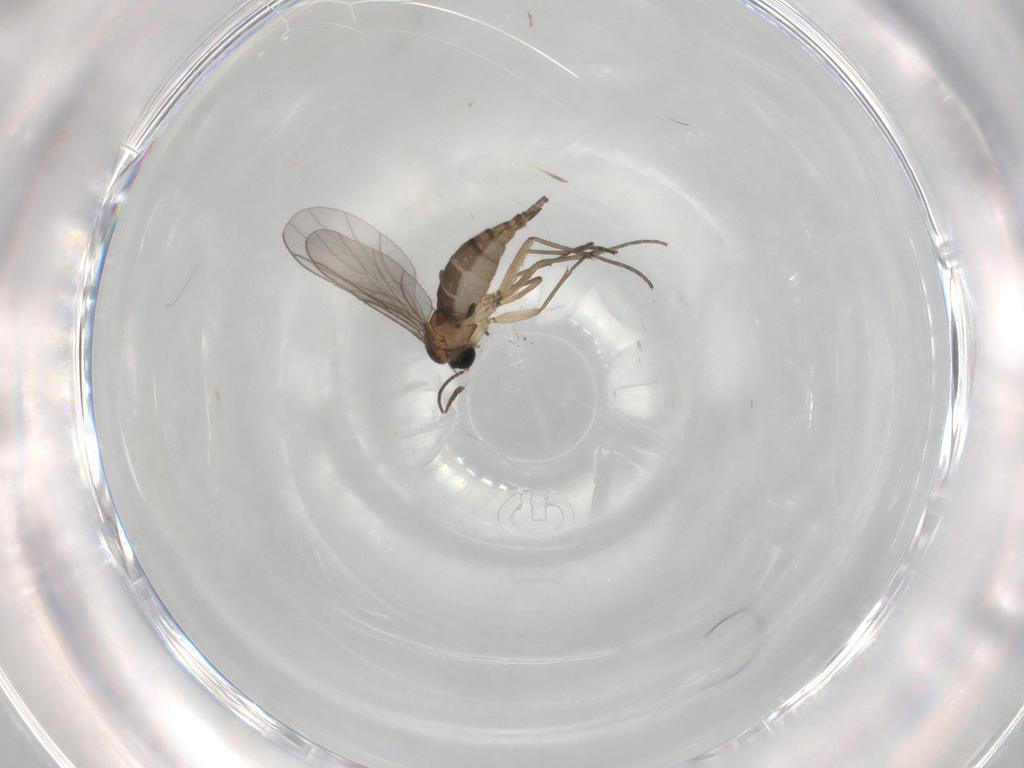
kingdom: Animalia
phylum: Arthropoda
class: Insecta
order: Diptera
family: Sciaridae
